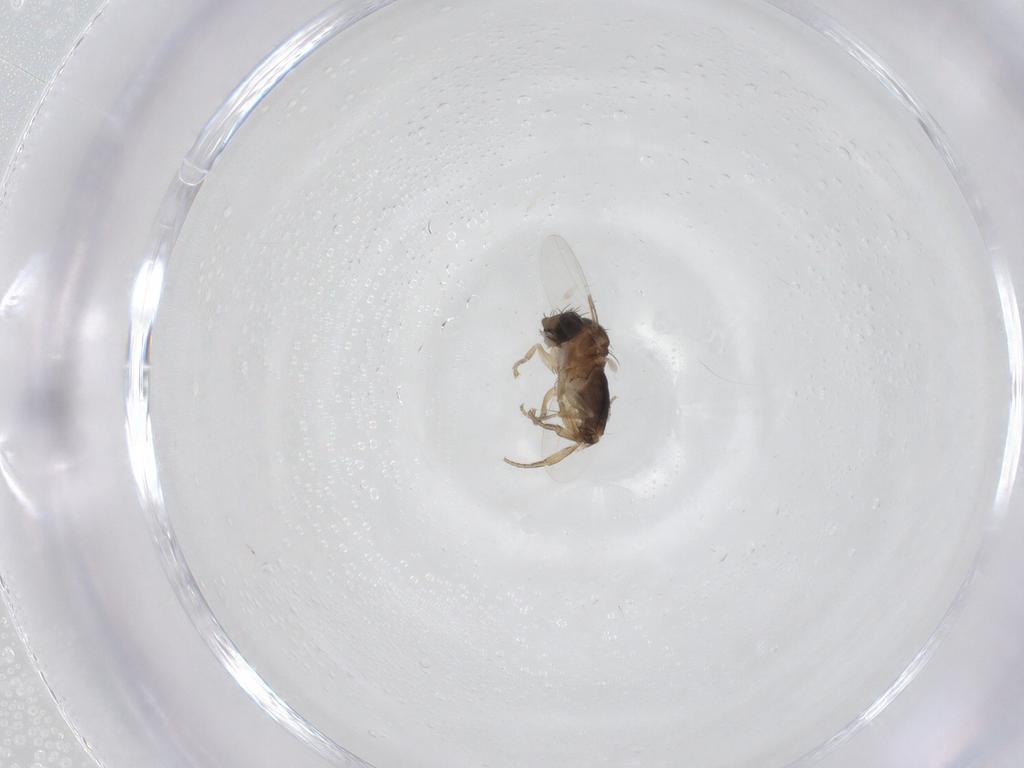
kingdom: Animalia
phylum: Arthropoda
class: Insecta
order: Diptera
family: Phoridae
